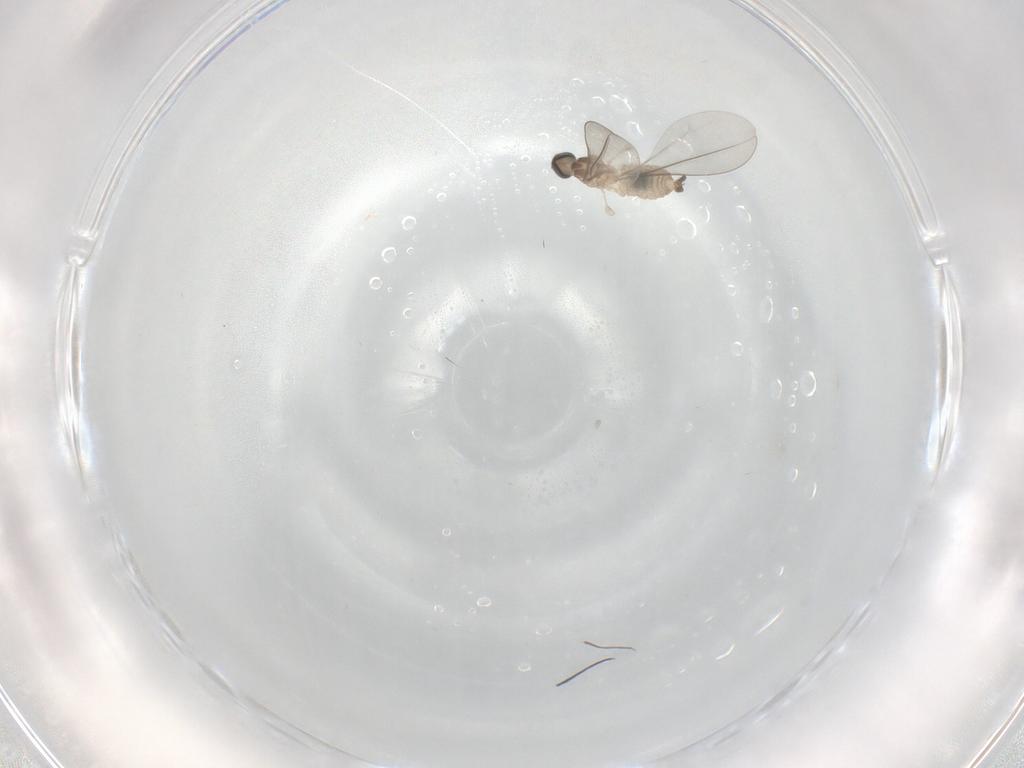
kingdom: Animalia
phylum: Arthropoda
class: Insecta
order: Diptera
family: Cecidomyiidae
